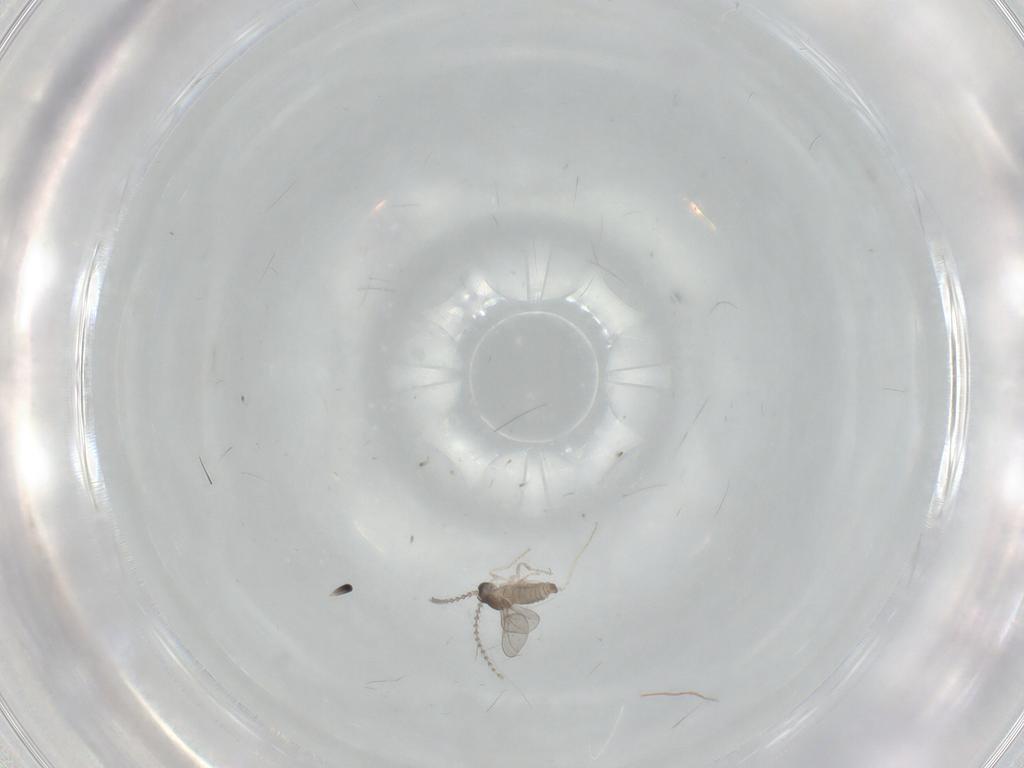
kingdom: Animalia
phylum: Arthropoda
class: Insecta
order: Diptera
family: Cecidomyiidae
